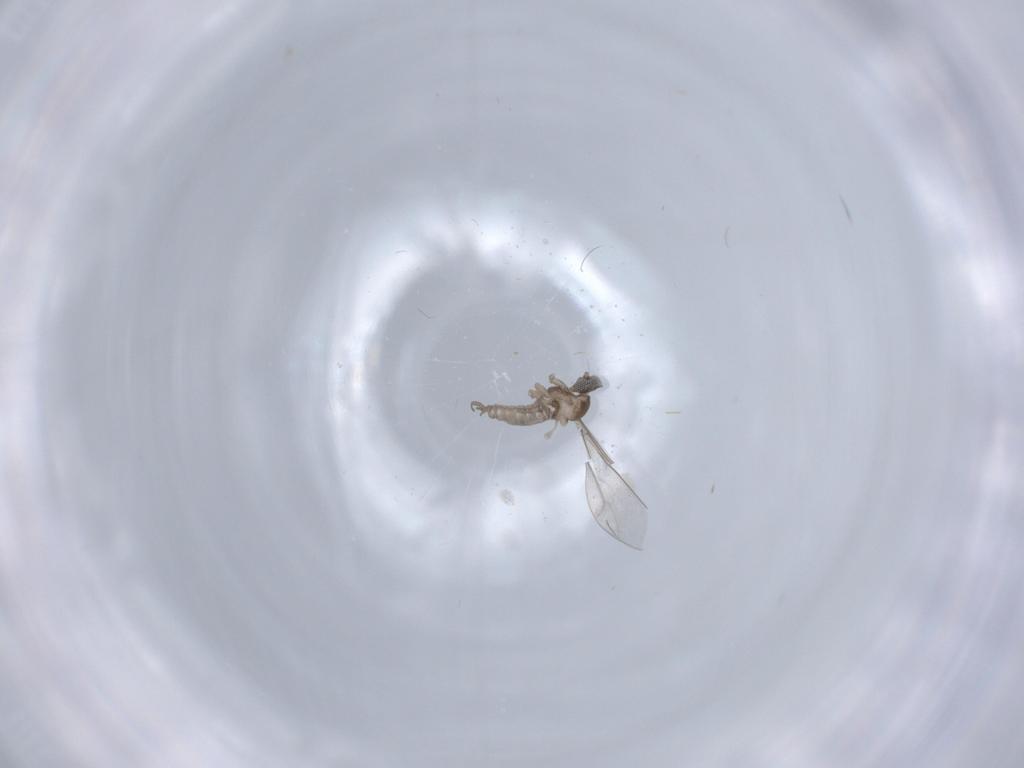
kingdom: Animalia
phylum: Arthropoda
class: Insecta
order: Diptera
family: Cecidomyiidae
